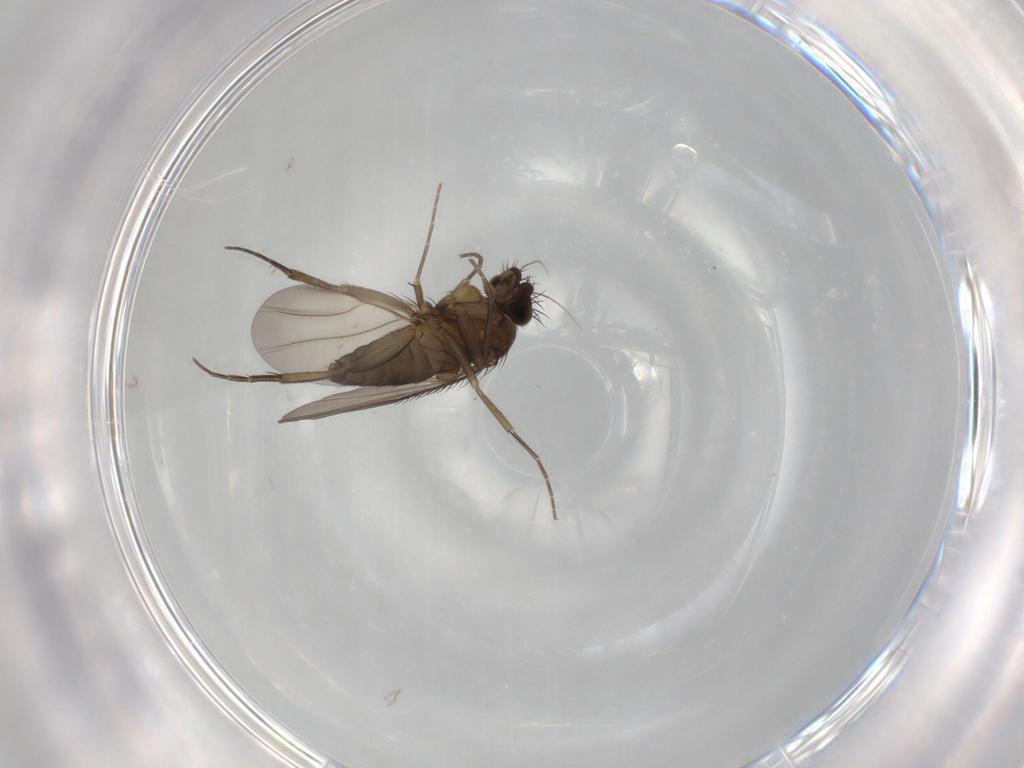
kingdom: Animalia
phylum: Arthropoda
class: Insecta
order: Diptera
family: Phoridae
